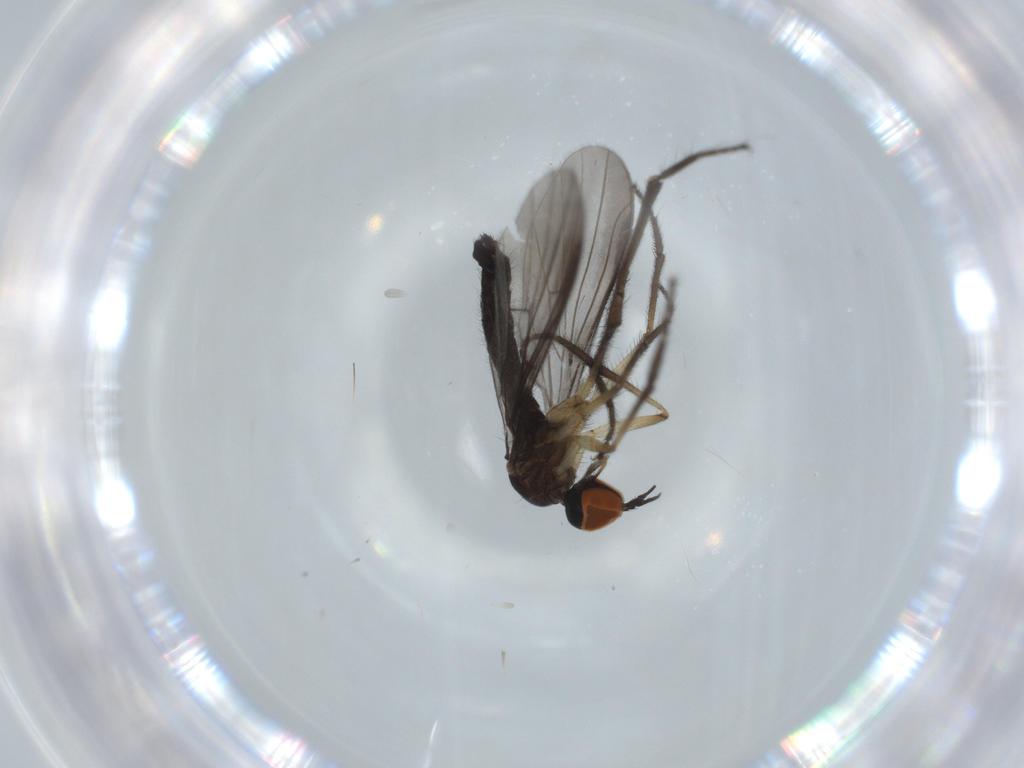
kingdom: Animalia
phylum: Arthropoda
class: Insecta
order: Diptera
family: Empididae
